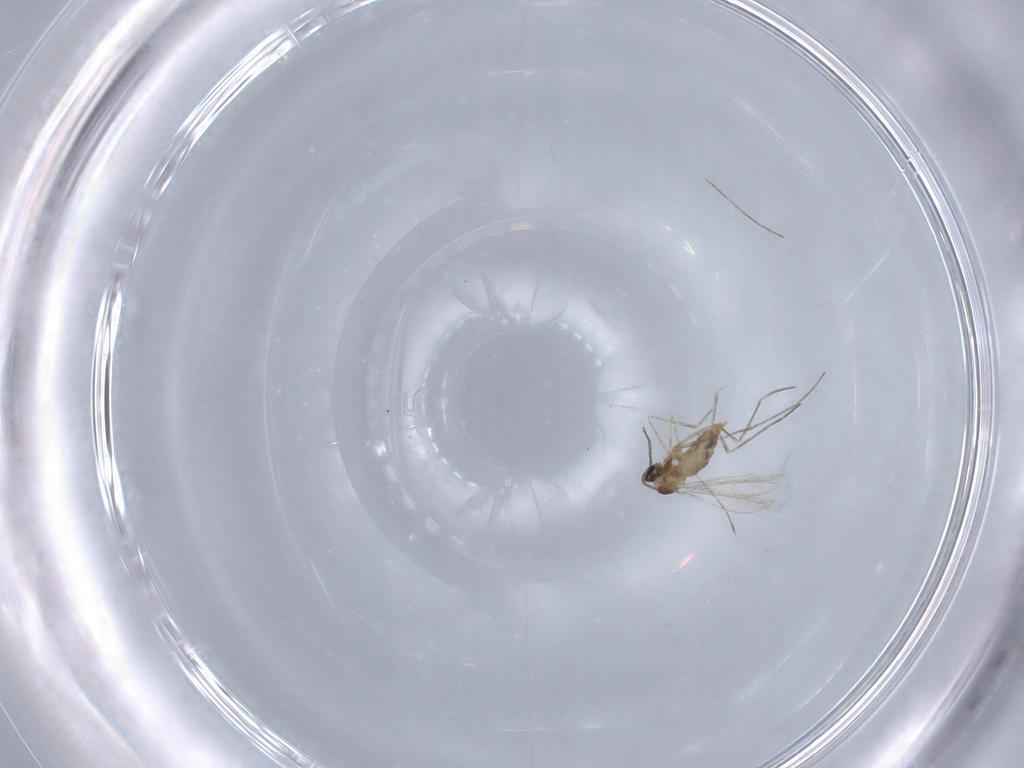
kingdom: Animalia
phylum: Arthropoda
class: Insecta
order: Diptera
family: Cecidomyiidae
